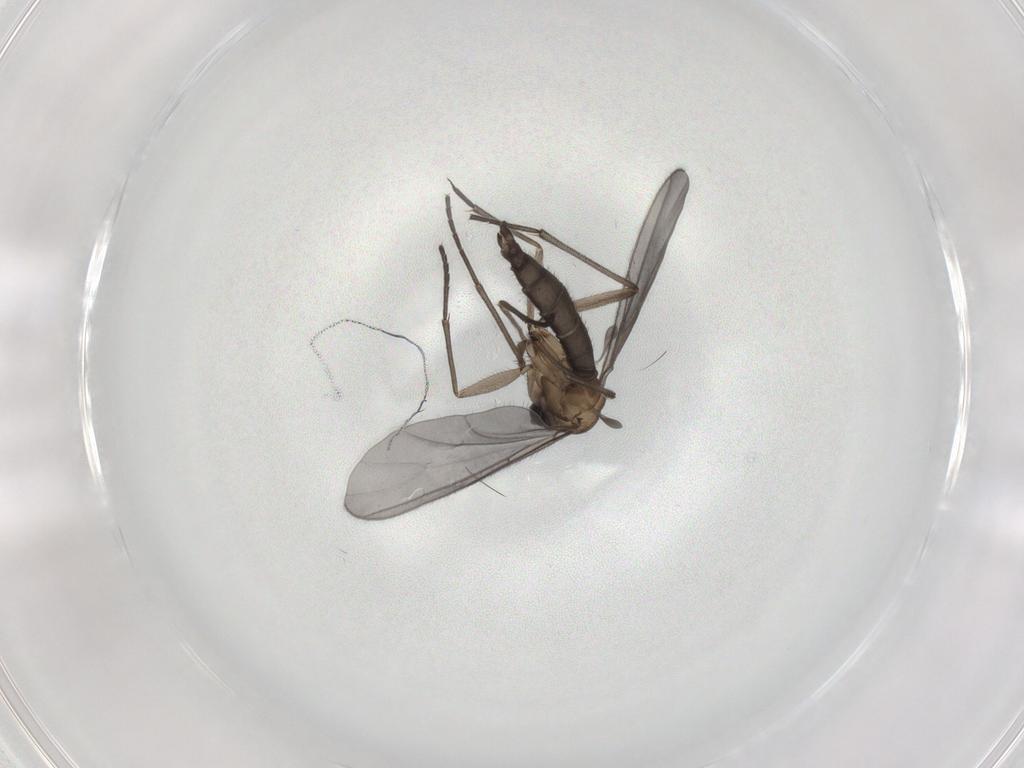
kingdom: Animalia
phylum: Arthropoda
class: Insecta
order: Diptera
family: Sciaridae
